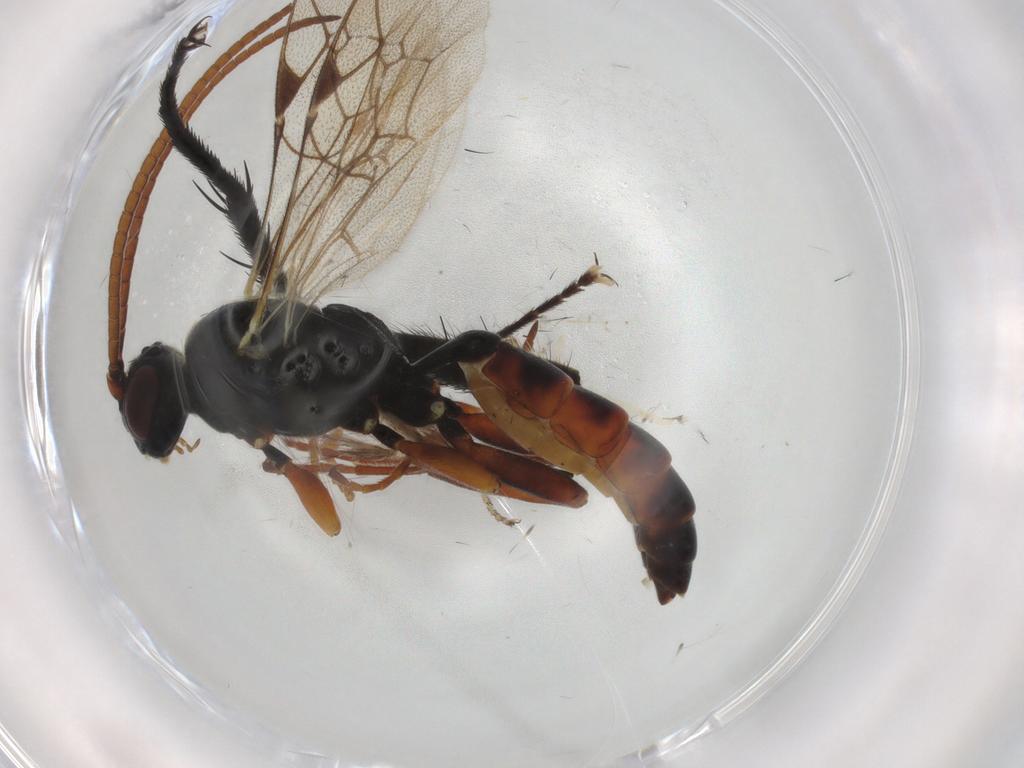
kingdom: Animalia
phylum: Arthropoda
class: Insecta
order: Hymenoptera
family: Ichneumonidae
